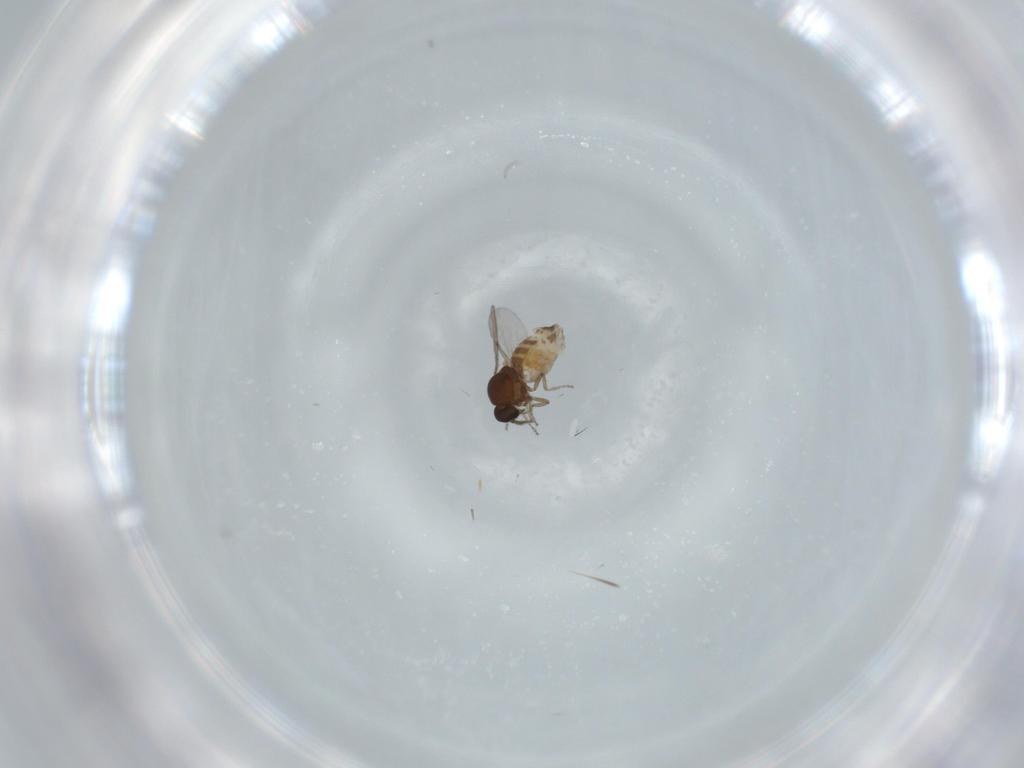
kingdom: Animalia
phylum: Arthropoda
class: Insecta
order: Diptera
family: Ceratopogonidae
